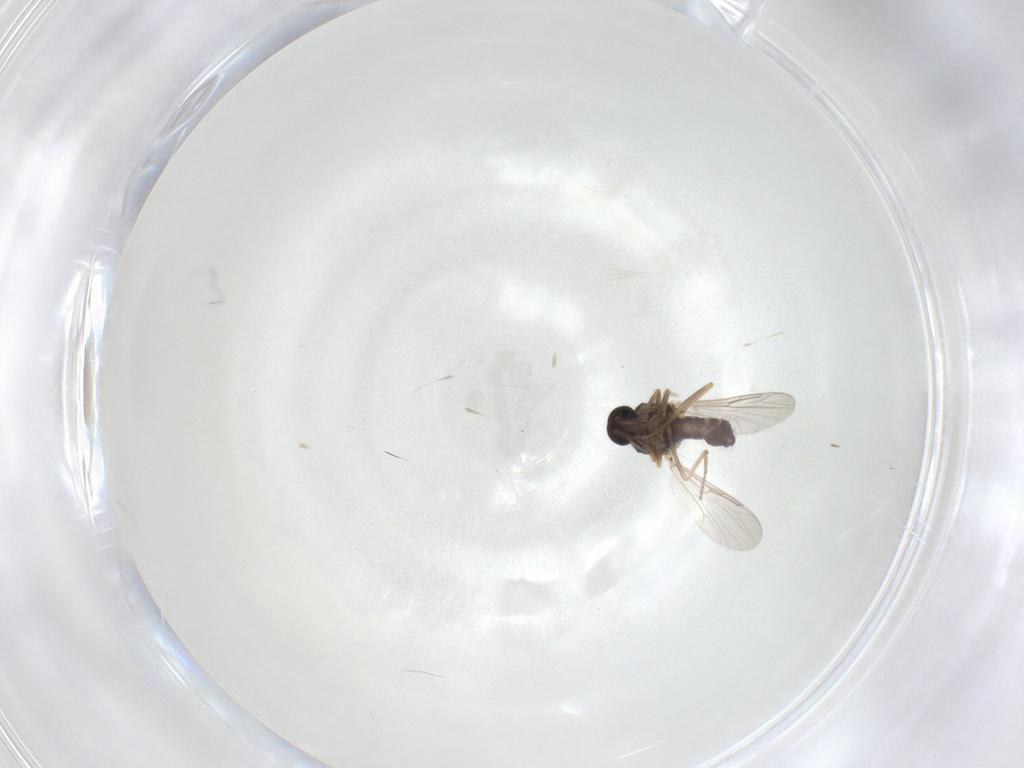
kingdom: Animalia
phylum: Arthropoda
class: Insecta
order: Diptera
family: Ceratopogonidae
